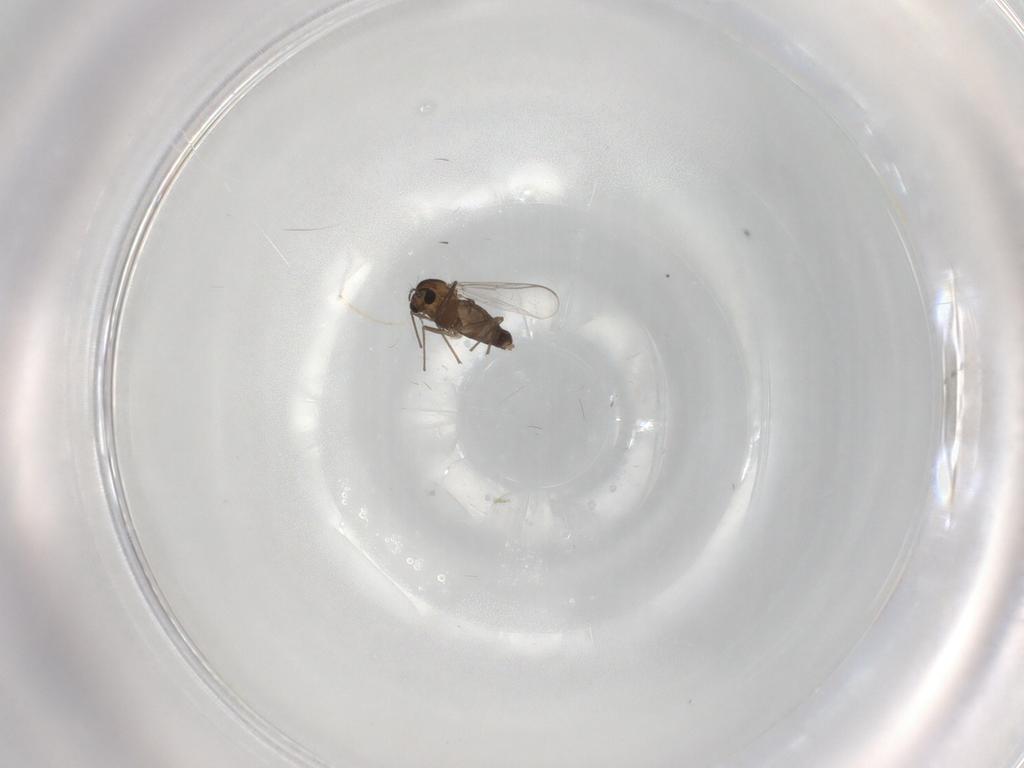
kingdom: Animalia
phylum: Arthropoda
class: Insecta
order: Diptera
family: Chironomidae
